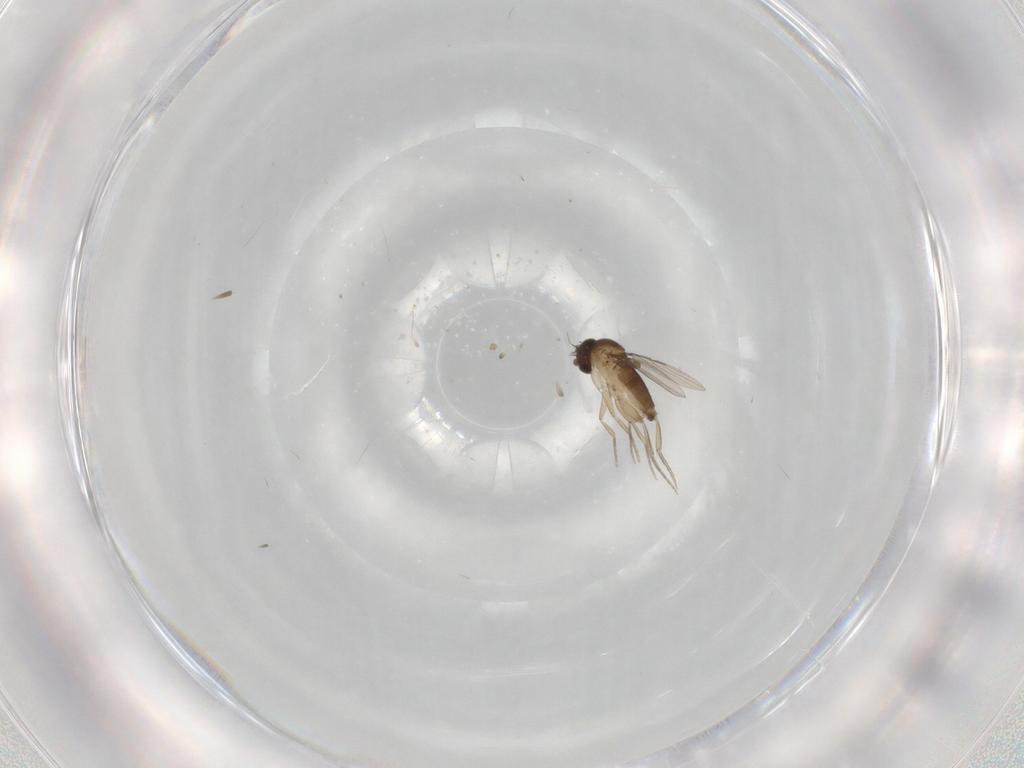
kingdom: Animalia
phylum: Arthropoda
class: Insecta
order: Diptera
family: Phoridae
